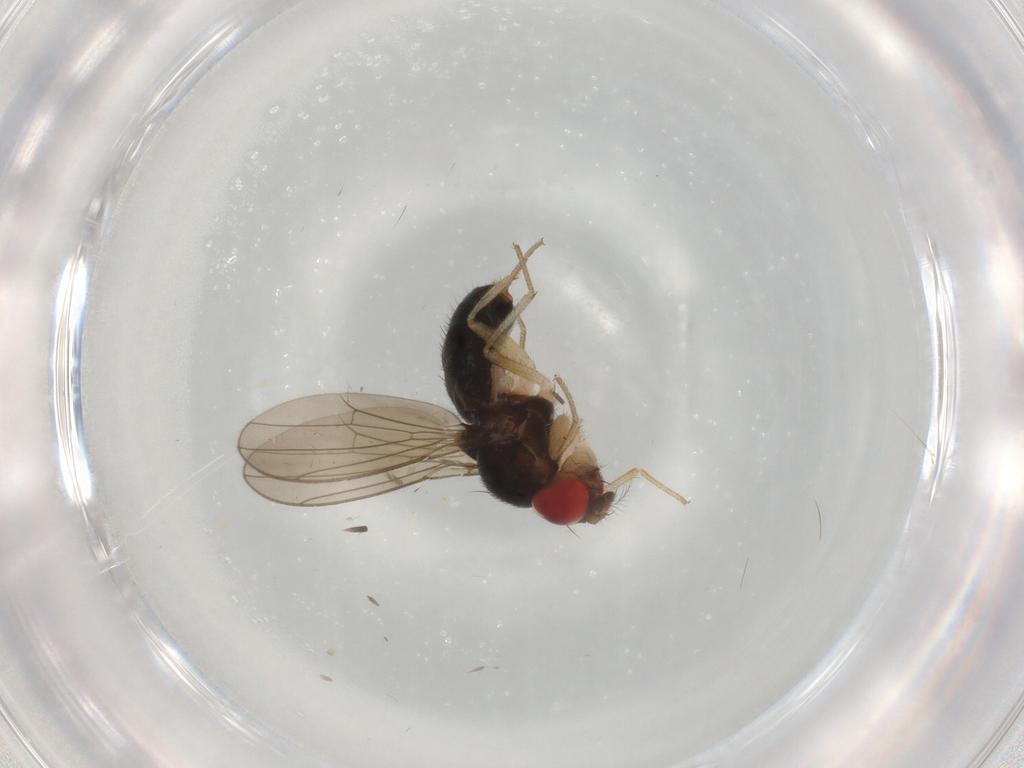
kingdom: Animalia
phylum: Arthropoda
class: Insecta
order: Diptera
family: Drosophilidae
